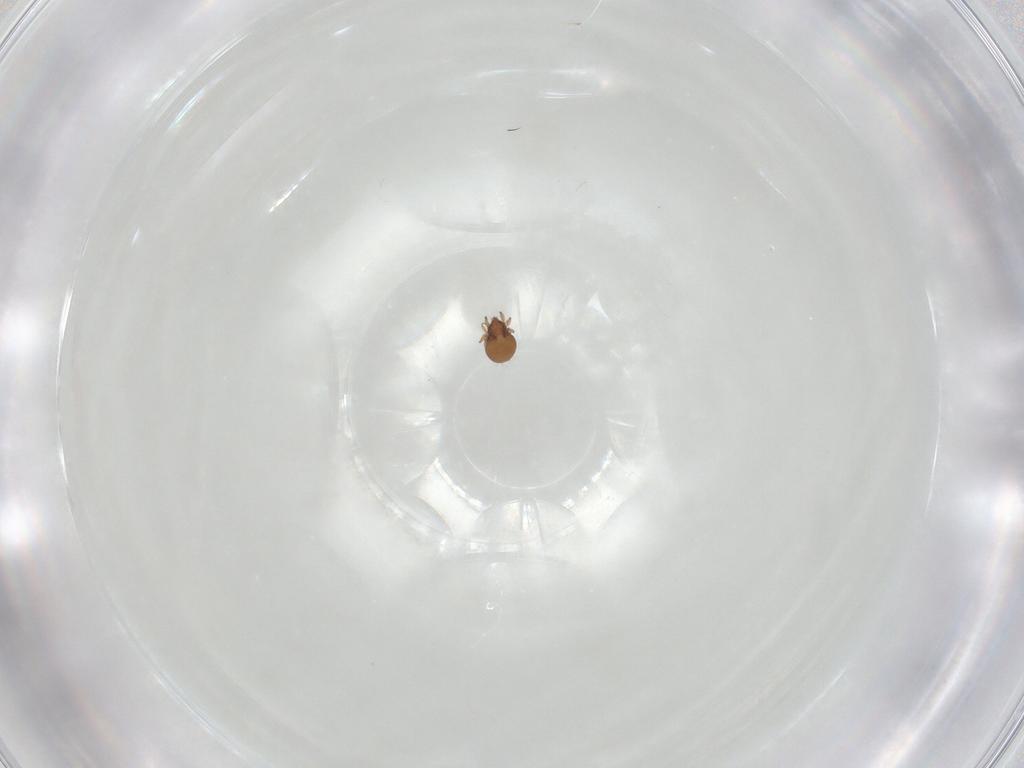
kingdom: Animalia
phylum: Arthropoda
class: Arachnida
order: Sarcoptiformes
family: Oribatulidae
